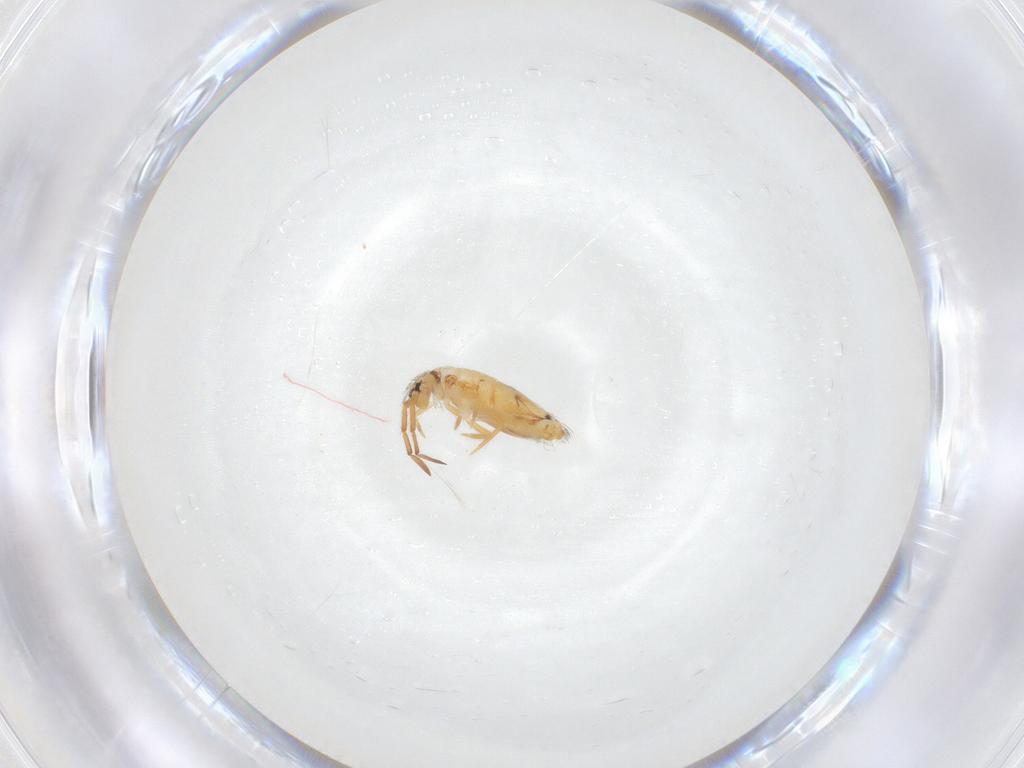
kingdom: Animalia
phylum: Arthropoda
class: Collembola
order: Entomobryomorpha
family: Entomobryidae
